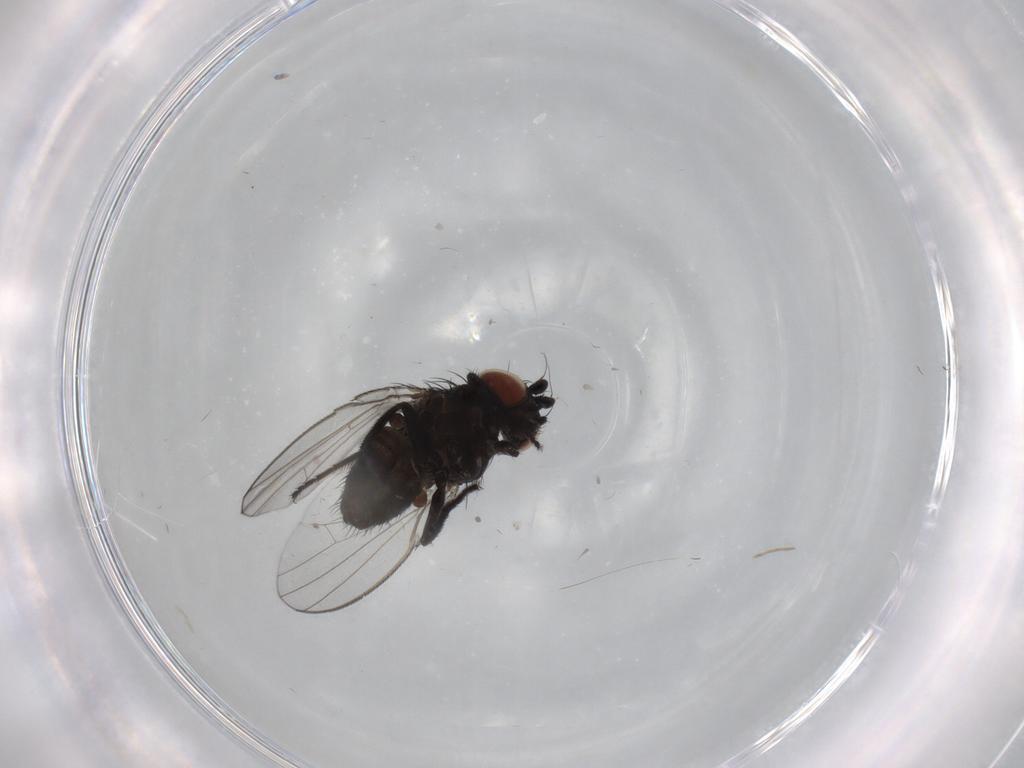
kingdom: Animalia
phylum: Arthropoda
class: Insecta
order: Diptera
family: Milichiidae
